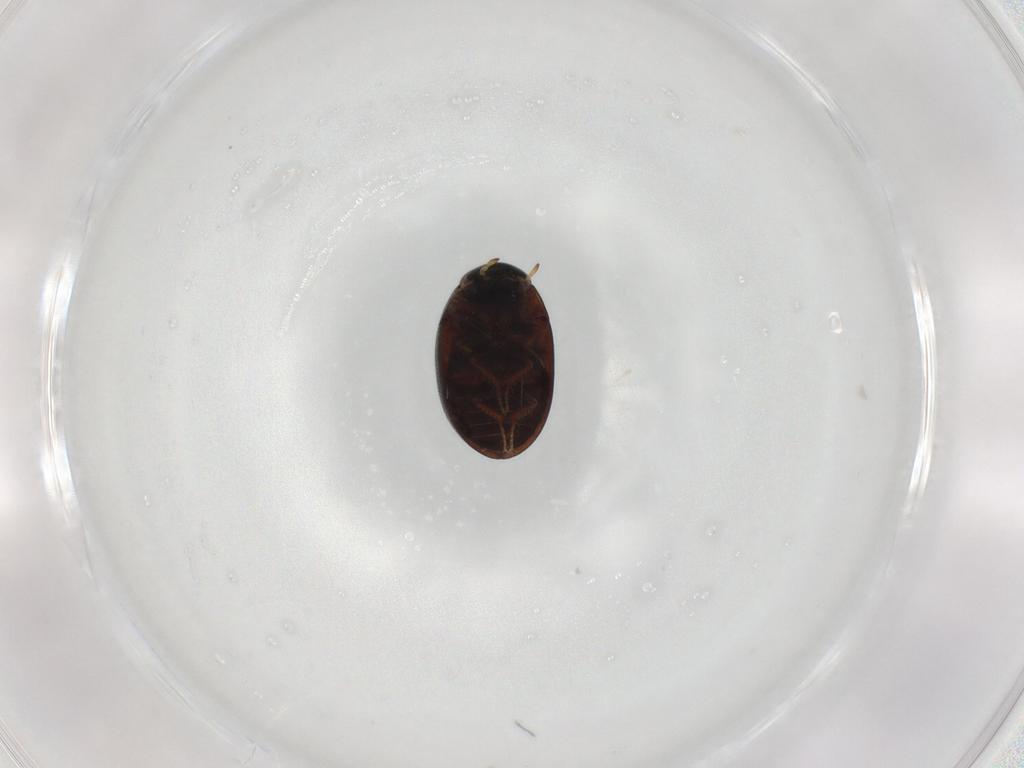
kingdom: Animalia
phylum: Arthropoda
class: Insecta
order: Coleoptera
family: Hydrophilidae
